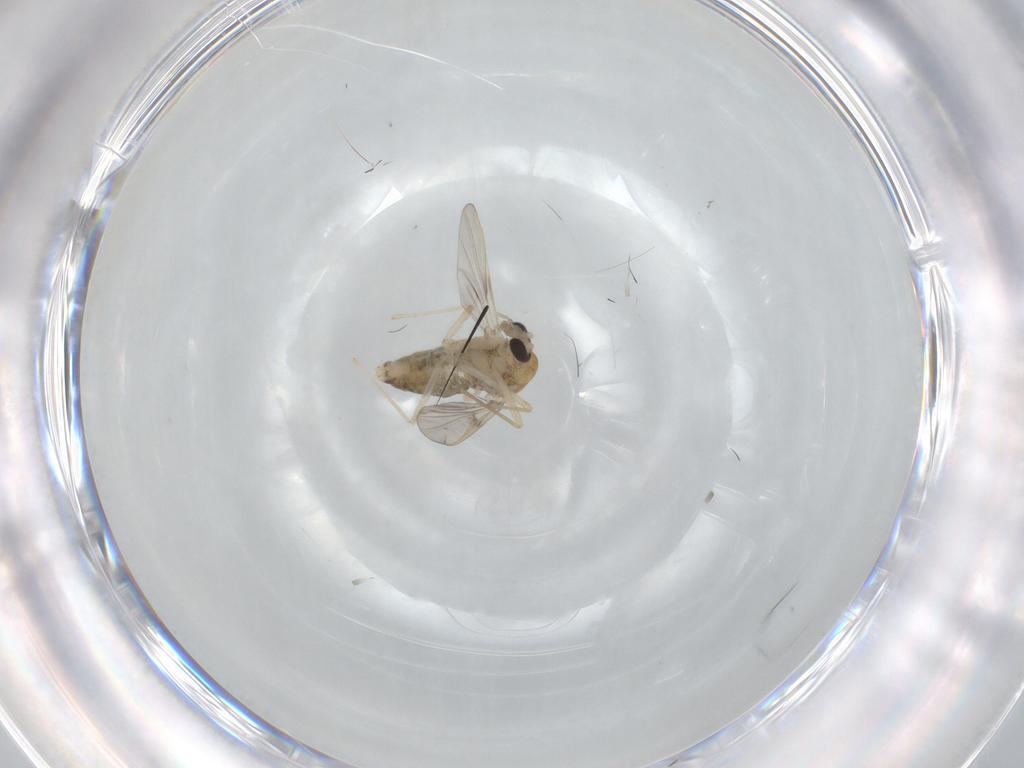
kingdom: Animalia
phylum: Arthropoda
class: Insecta
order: Diptera
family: Chironomidae
